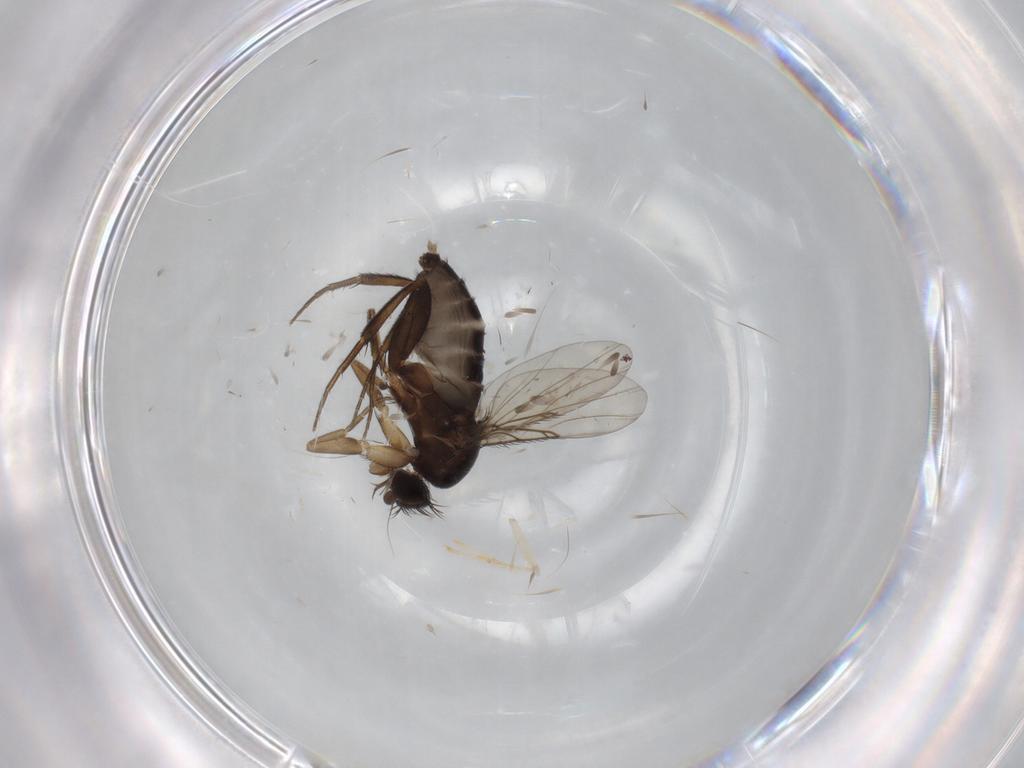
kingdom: Animalia
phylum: Arthropoda
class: Insecta
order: Diptera
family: Phoridae
